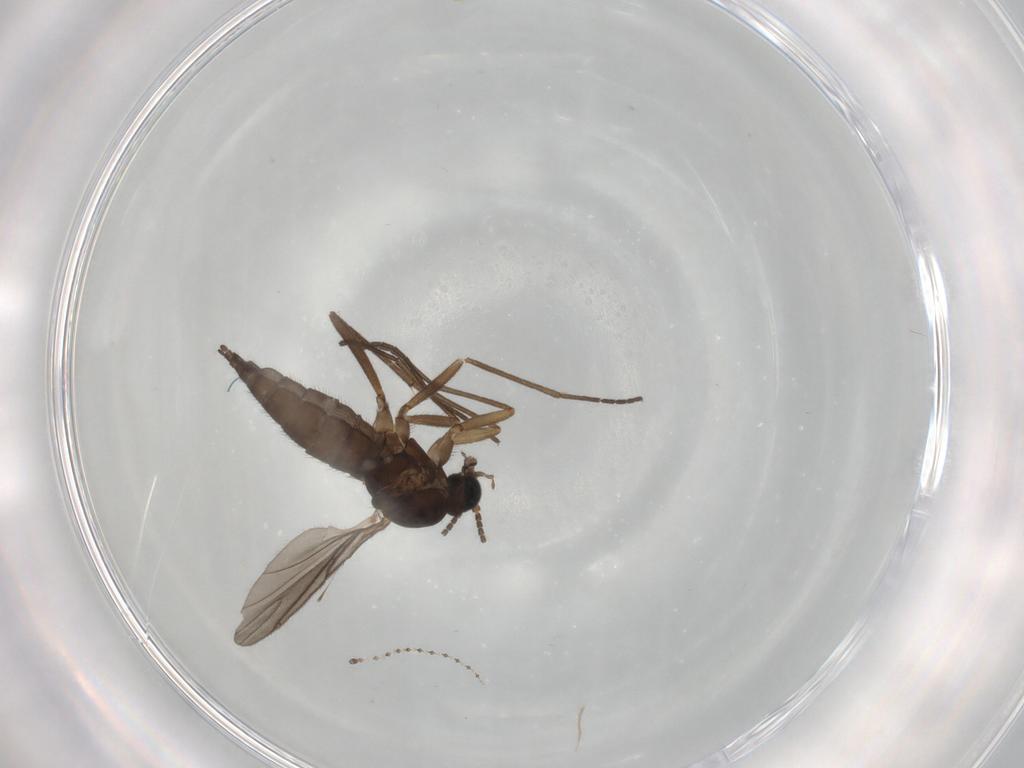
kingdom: Animalia
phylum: Arthropoda
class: Insecta
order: Diptera
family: Sciaridae
